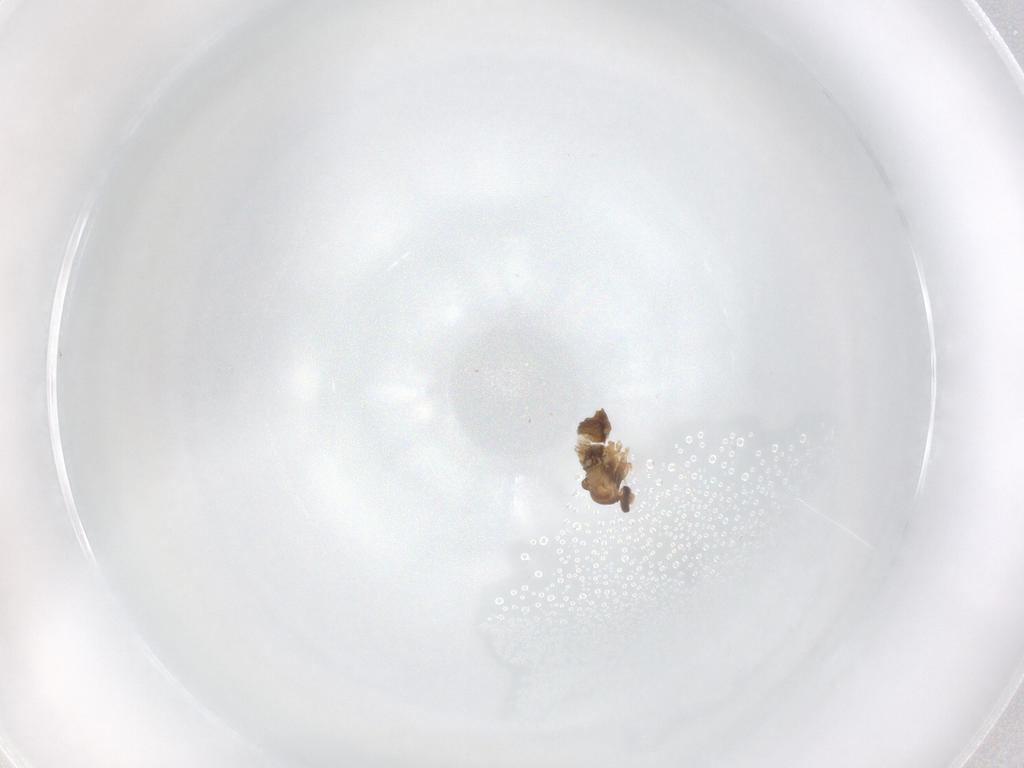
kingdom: Animalia
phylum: Arthropoda
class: Insecta
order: Diptera
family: Cecidomyiidae
